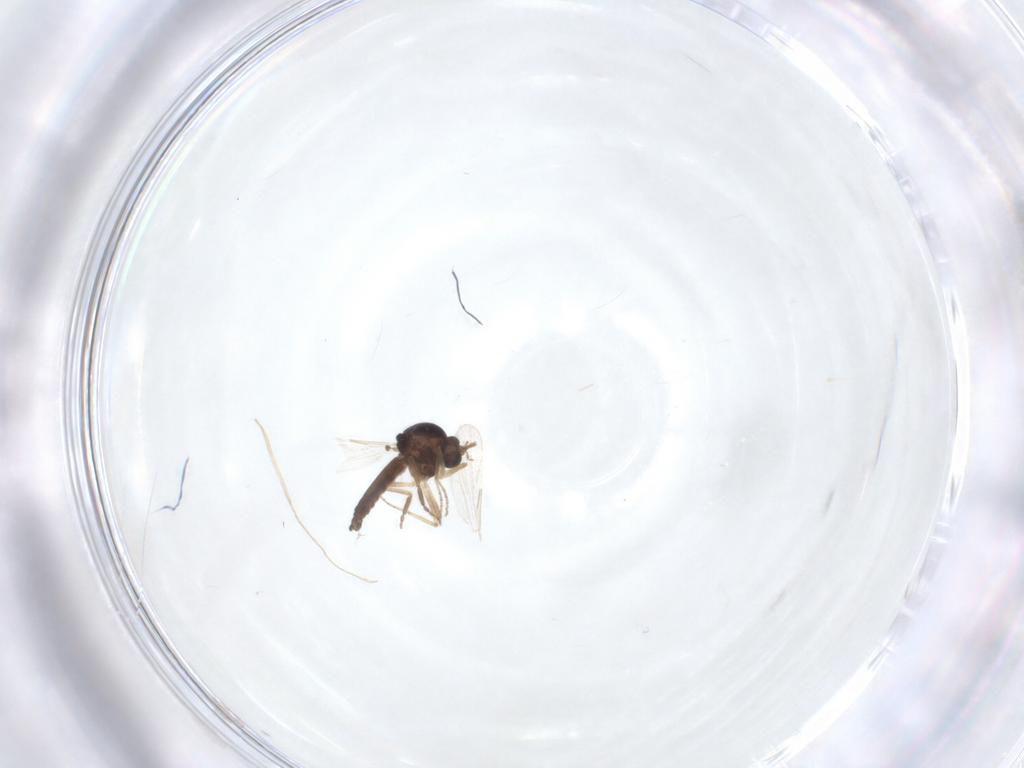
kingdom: Animalia
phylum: Arthropoda
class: Insecta
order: Diptera
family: Ceratopogonidae
